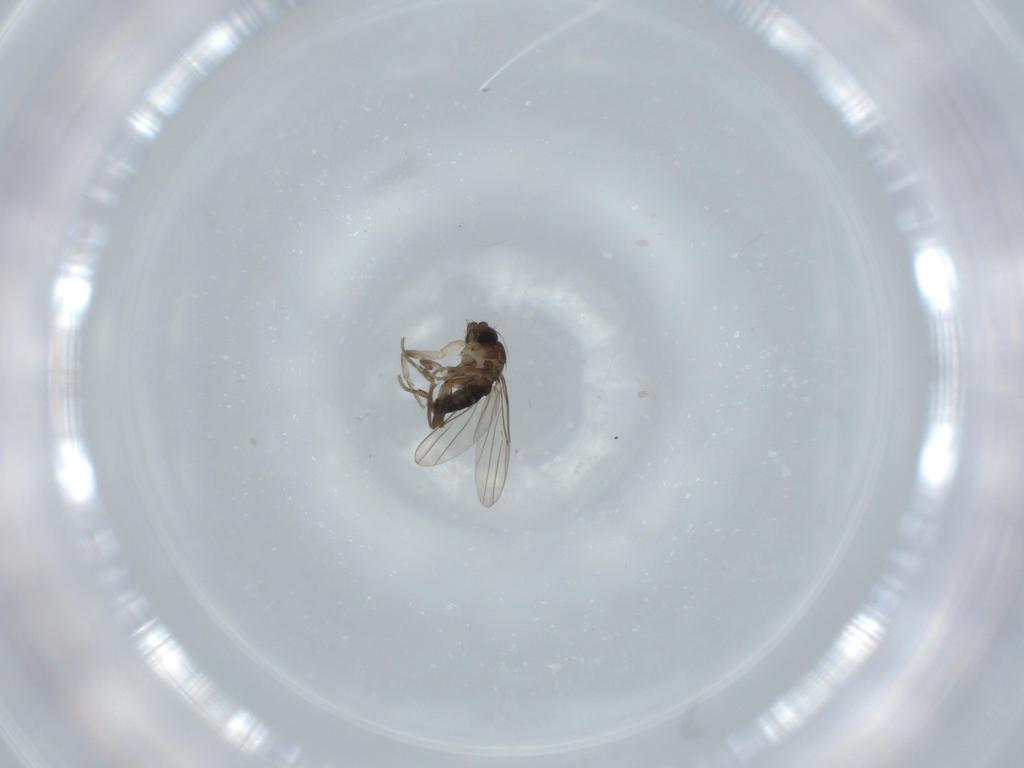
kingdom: Animalia
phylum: Arthropoda
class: Insecta
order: Diptera
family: Phoridae
